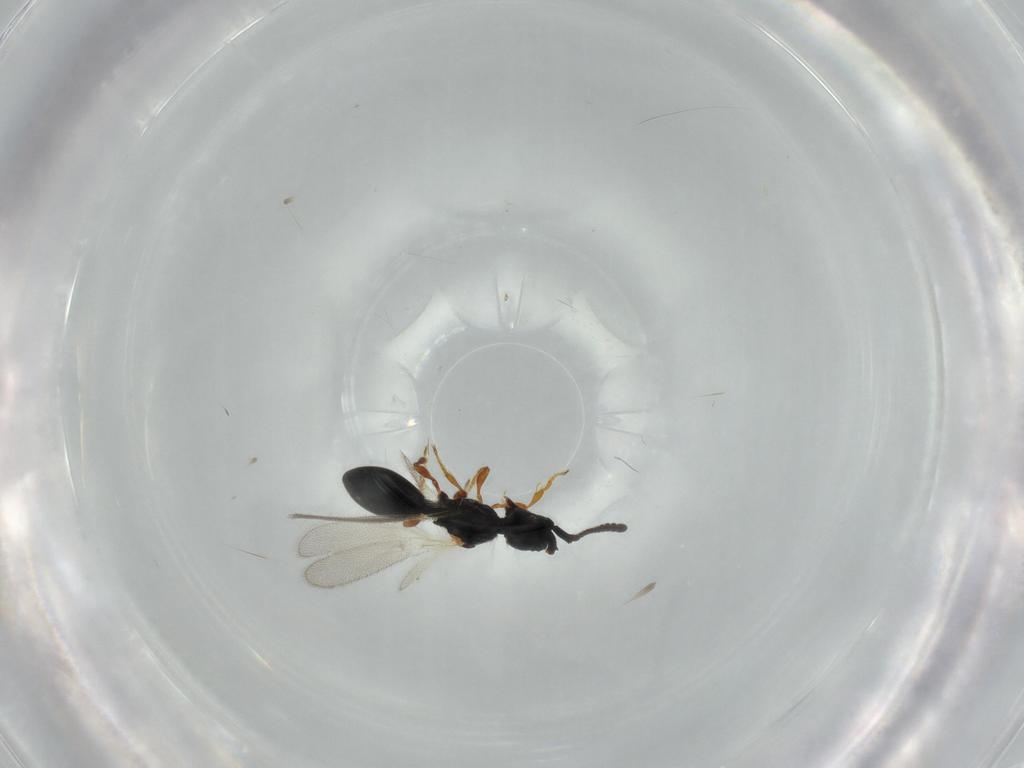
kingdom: Animalia
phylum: Arthropoda
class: Insecta
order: Hymenoptera
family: Diapriidae
